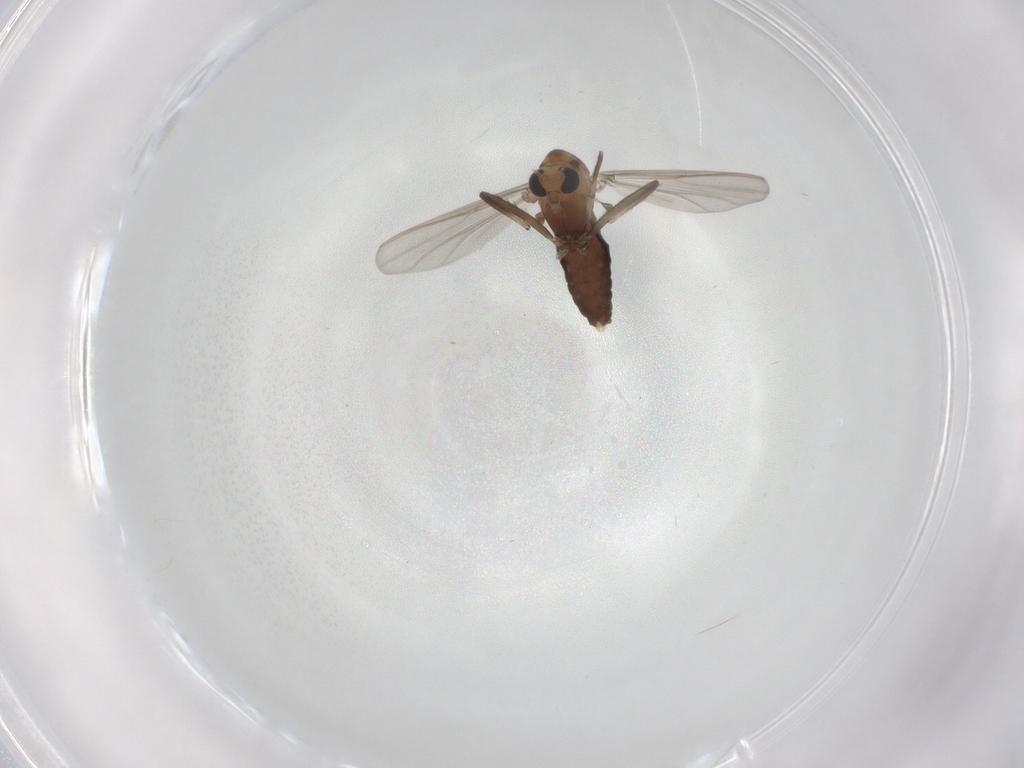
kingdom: Animalia
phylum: Arthropoda
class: Insecta
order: Diptera
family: Chironomidae
